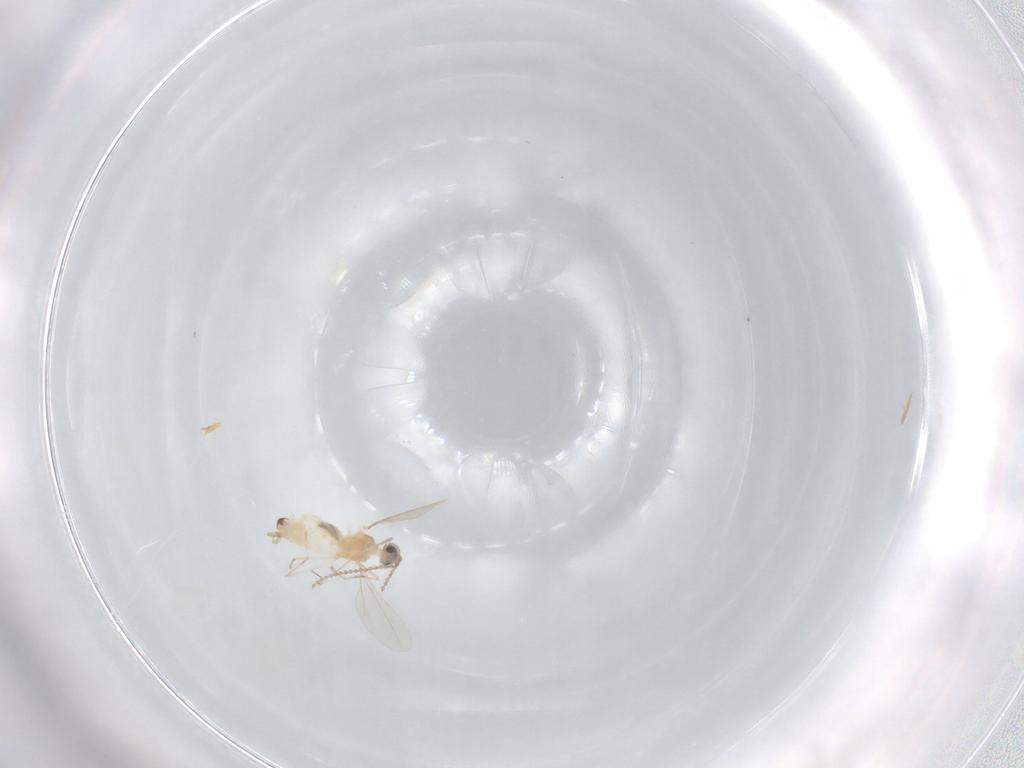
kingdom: Animalia
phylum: Arthropoda
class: Insecta
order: Diptera
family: Cecidomyiidae
